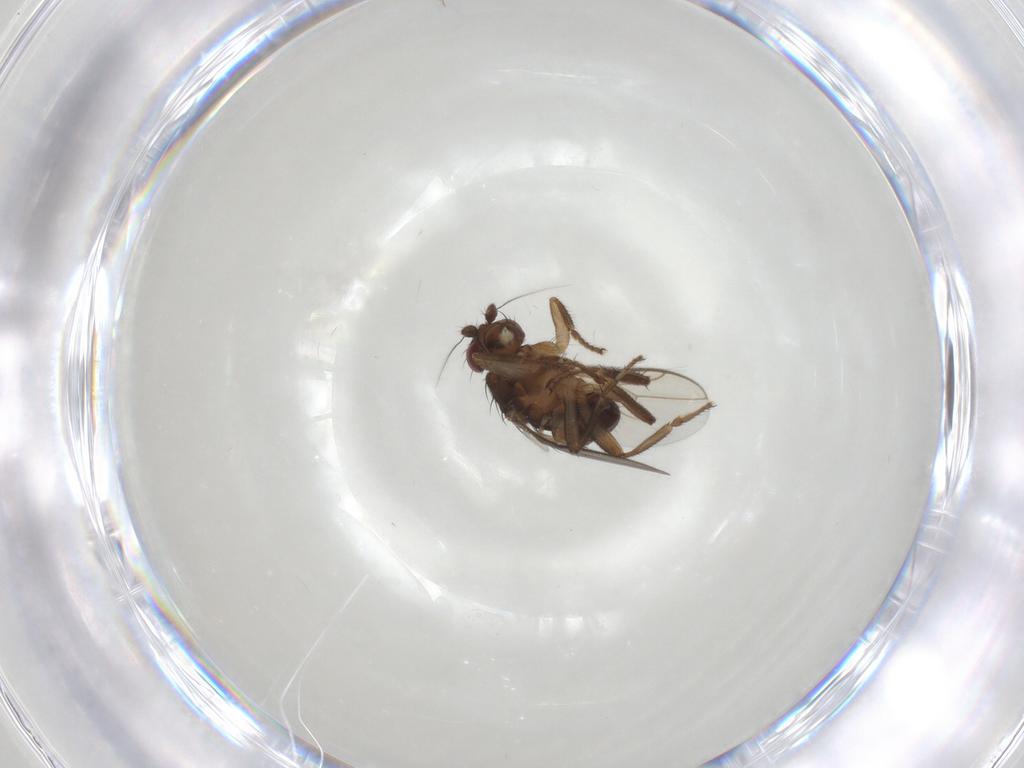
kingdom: Animalia
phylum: Arthropoda
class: Insecta
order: Diptera
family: Sphaeroceridae
